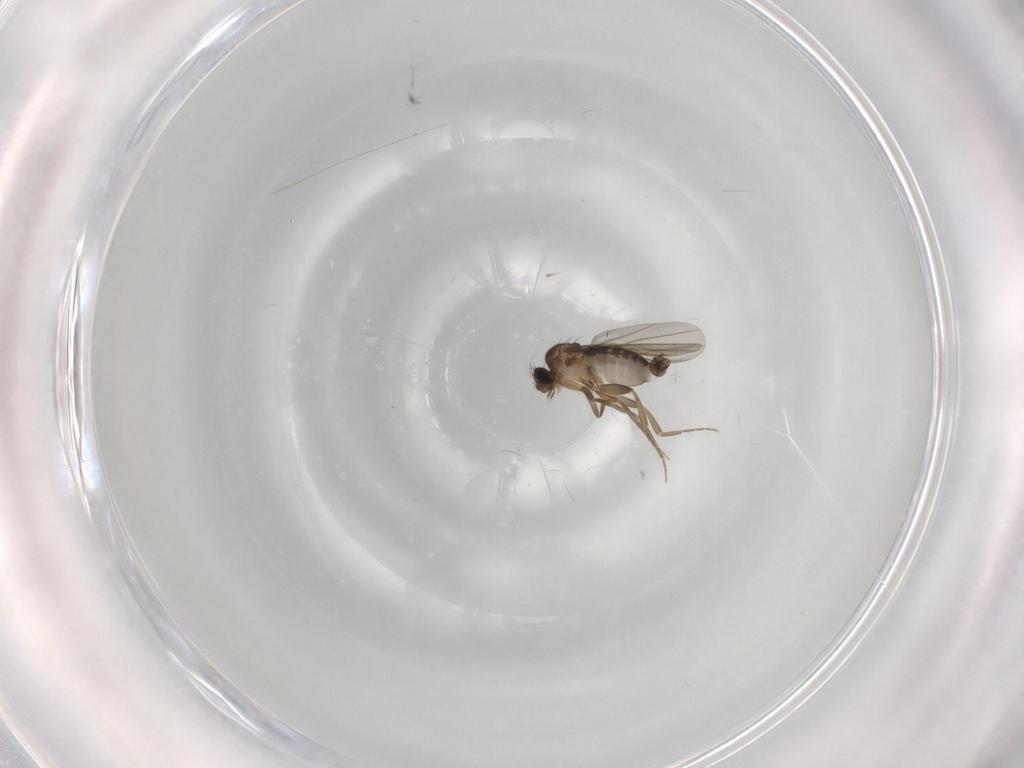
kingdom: Animalia
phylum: Arthropoda
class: Insecta
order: Diptera
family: Phoridae
